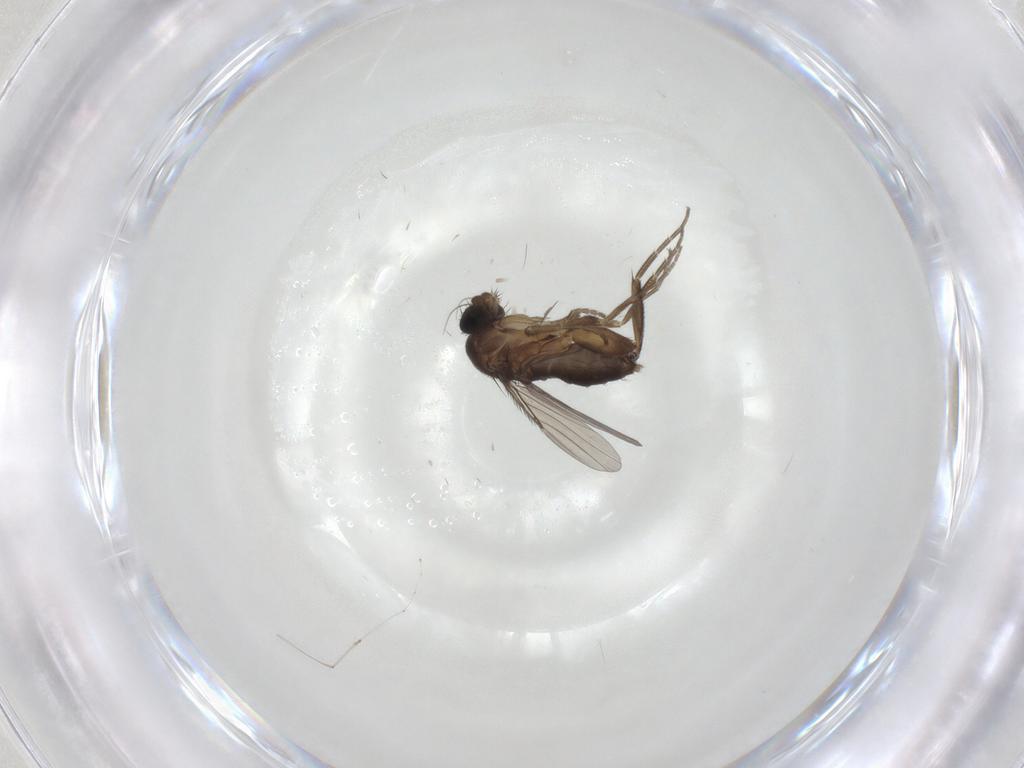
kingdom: Animalia
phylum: Arthropoda
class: Insecta
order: Diptera
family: Phoridae
